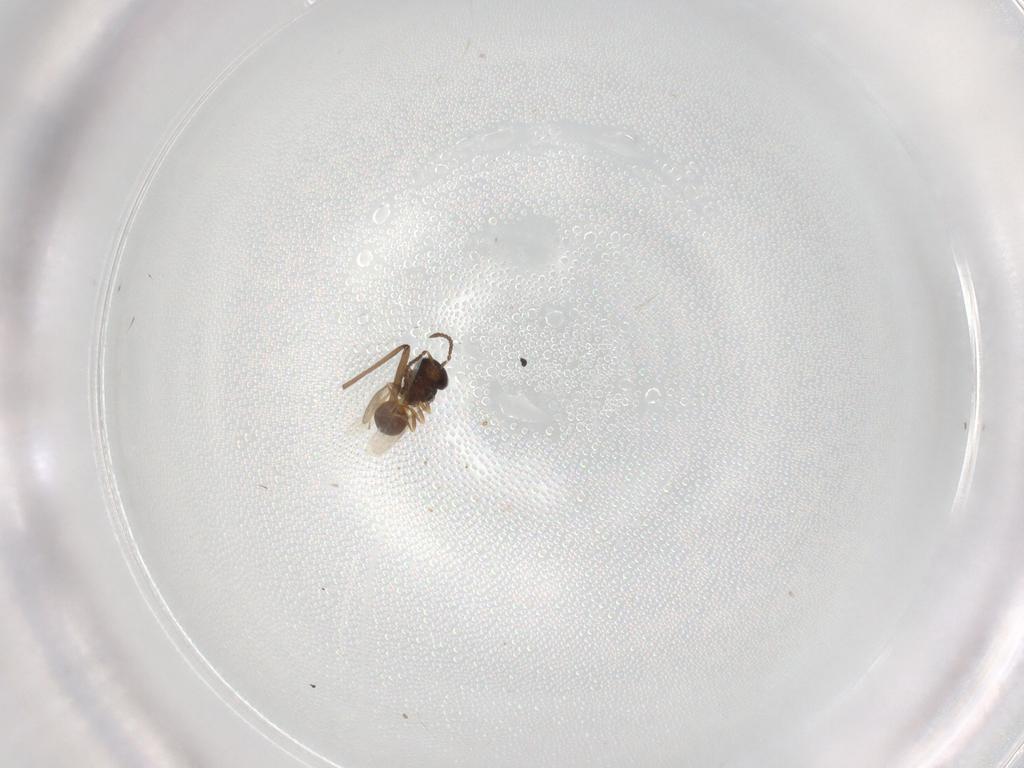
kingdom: Animalia
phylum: Arthropoda
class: Insecta
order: Hymenoptera
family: Scelionidae
